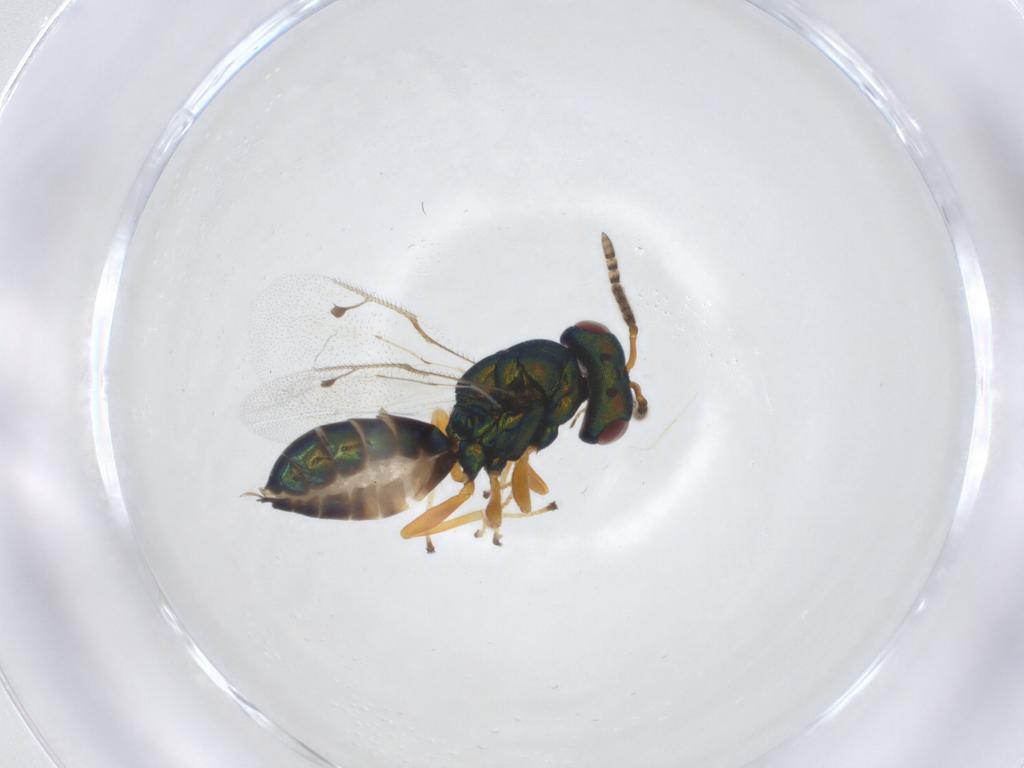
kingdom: Animalia
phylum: Arthropoda
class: Insecta
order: Hymenoptera
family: Pteromalidae
